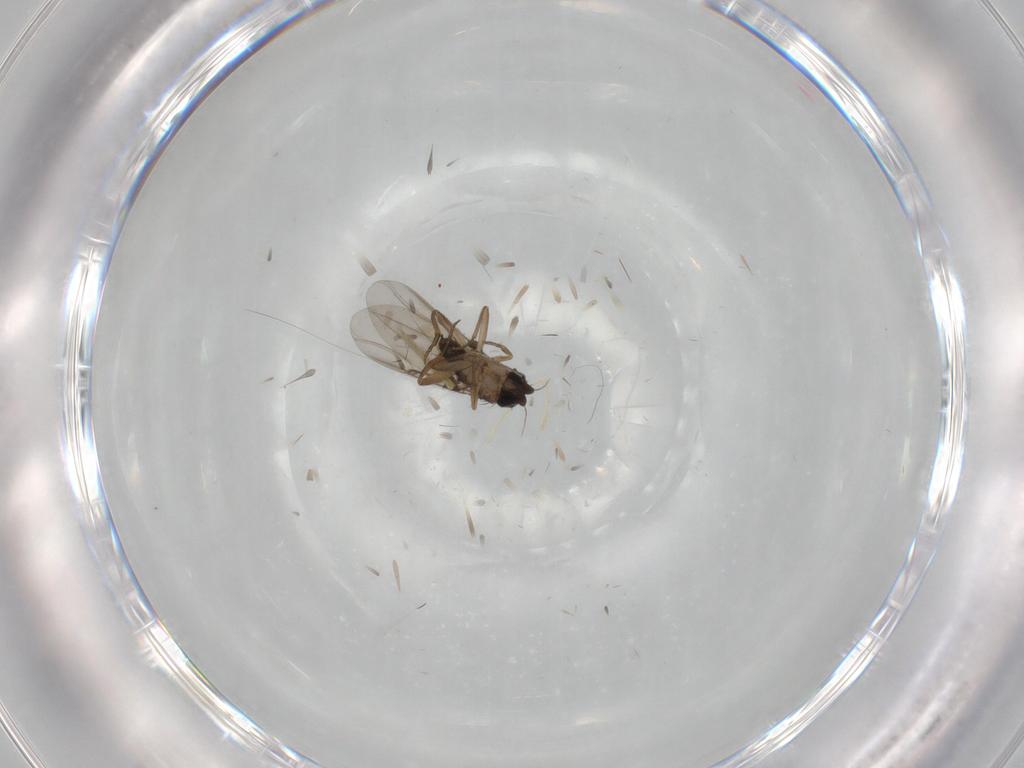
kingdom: Animalia
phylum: Arthropoda
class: Insecta
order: Diptera
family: Phoridae
